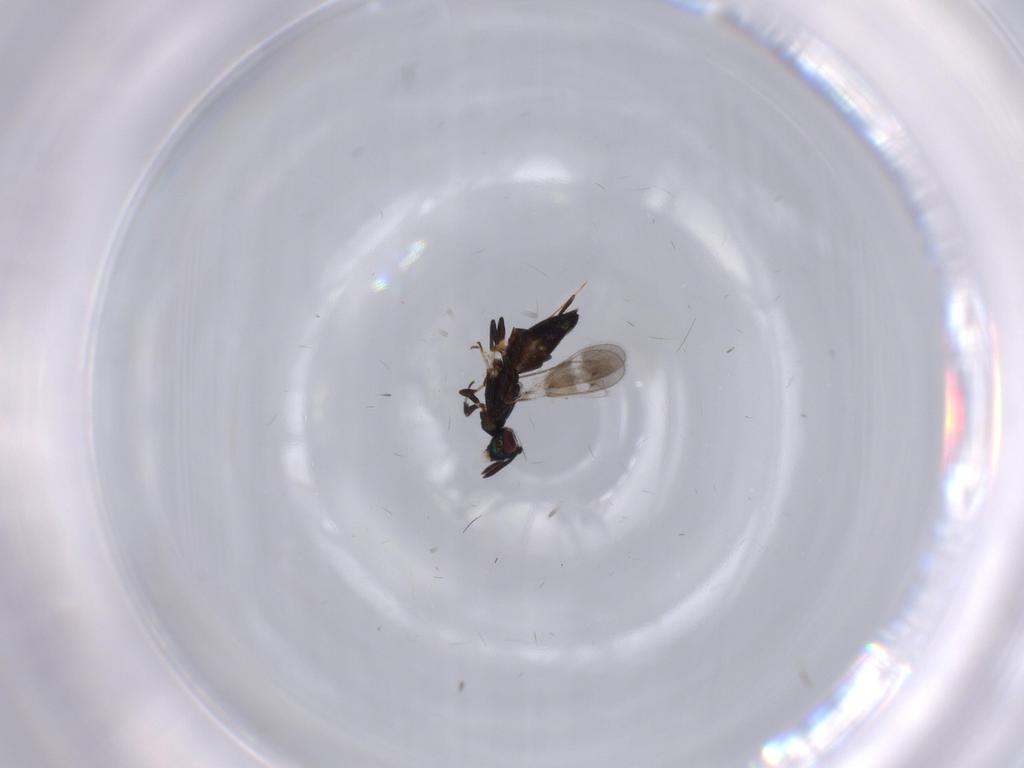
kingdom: Animalia
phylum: Arthropoda
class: Insecta
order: Hymenoptera
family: Eupelmidae
